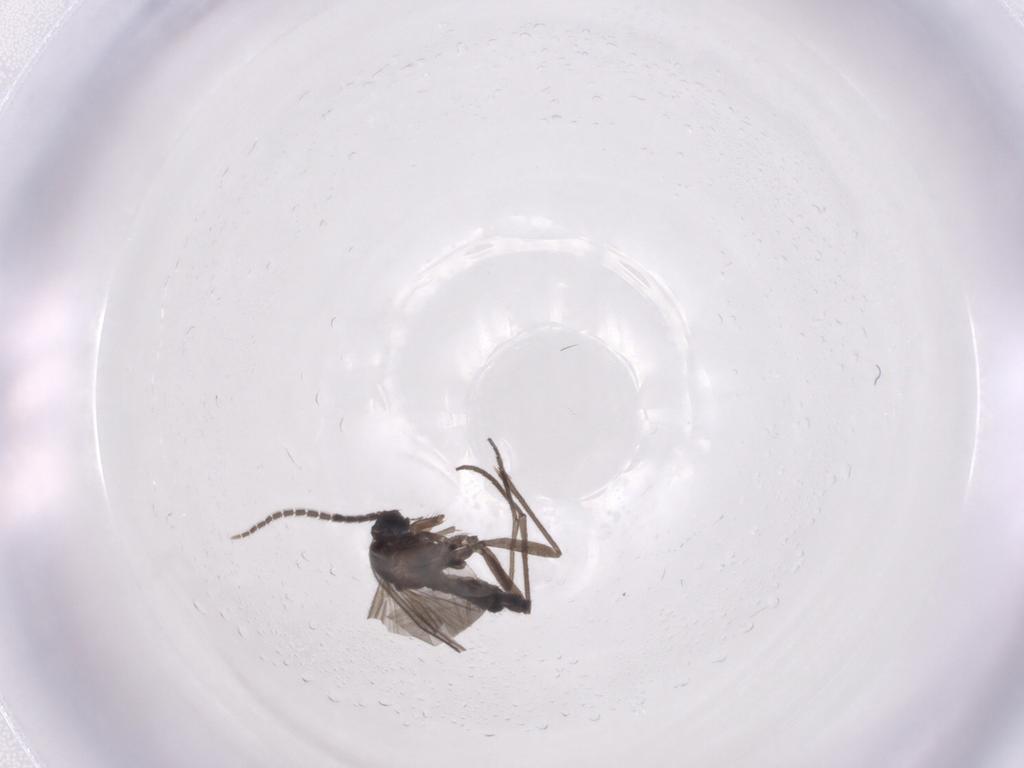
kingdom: Animalia
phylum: Arthropoda
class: Insecta
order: Diptera
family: Sciaridae
